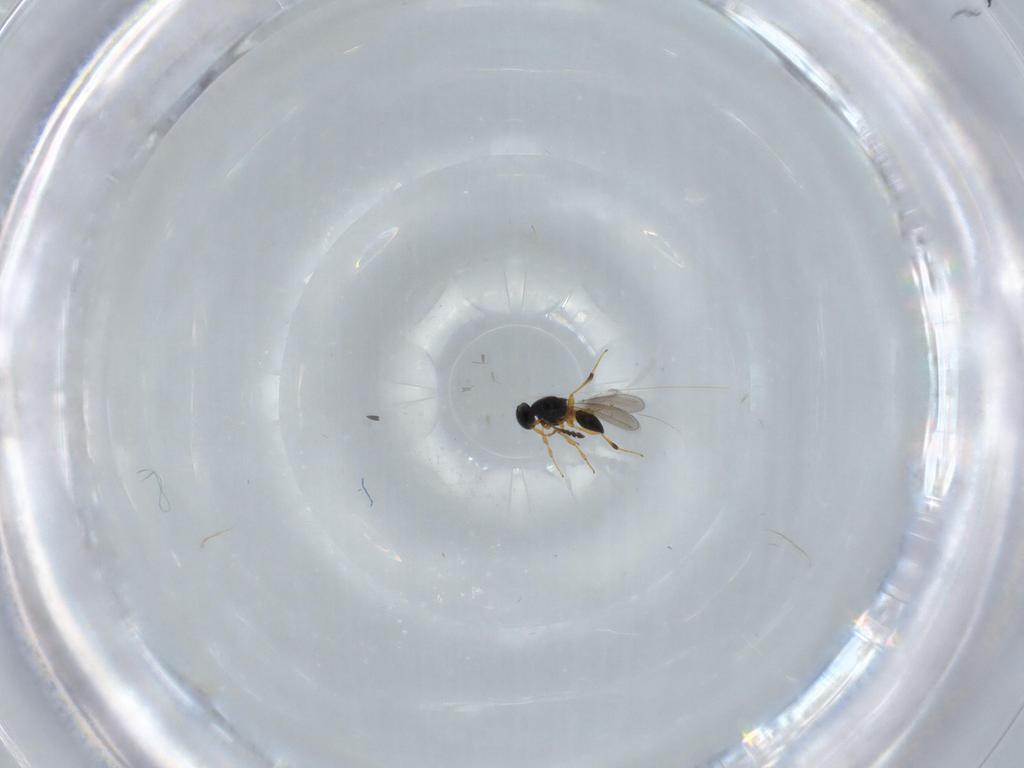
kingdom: Animalia
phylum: Arthropoda
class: Insecta
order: Hymenoptera
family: Platygastridae
